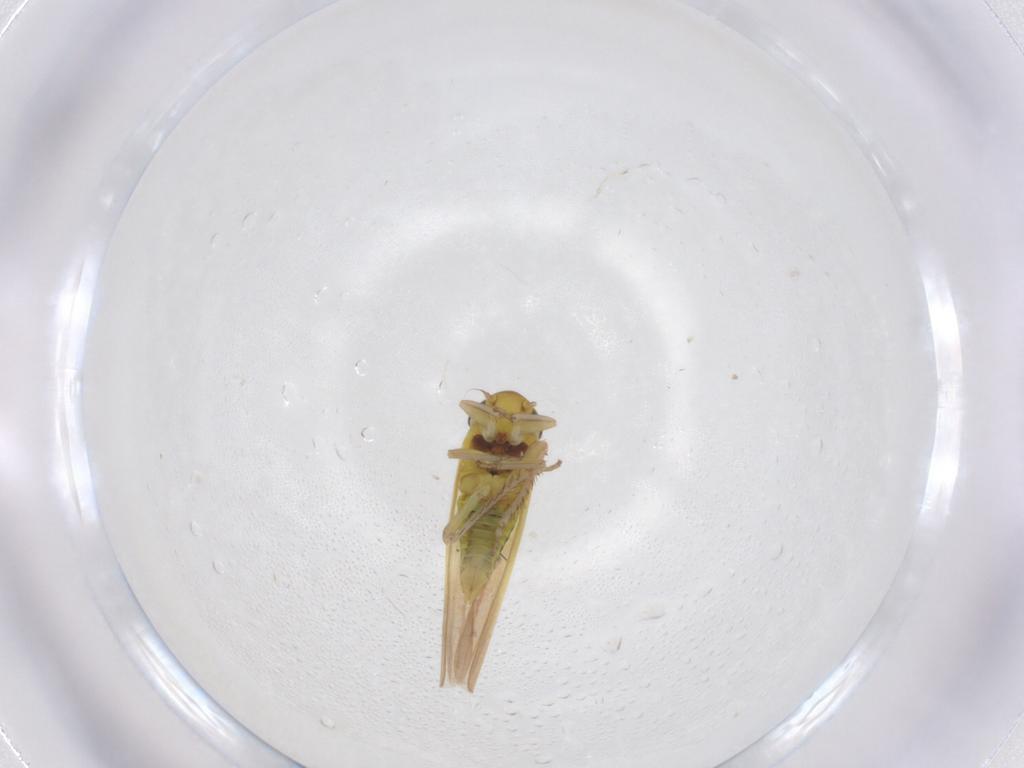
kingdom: Animalia
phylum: Arthropoda
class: Insecta
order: Hemiptera
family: Cicadellidae
